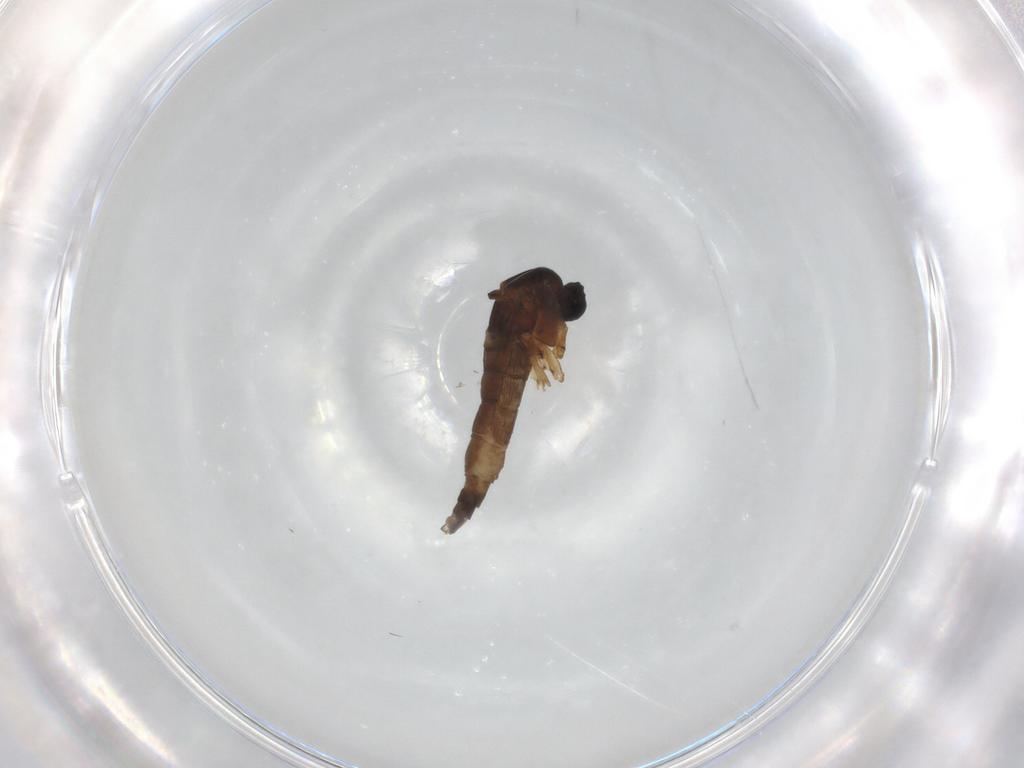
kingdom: Animalia
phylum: Arthropoda
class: Insecta
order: Diptera
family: Sciaridae
